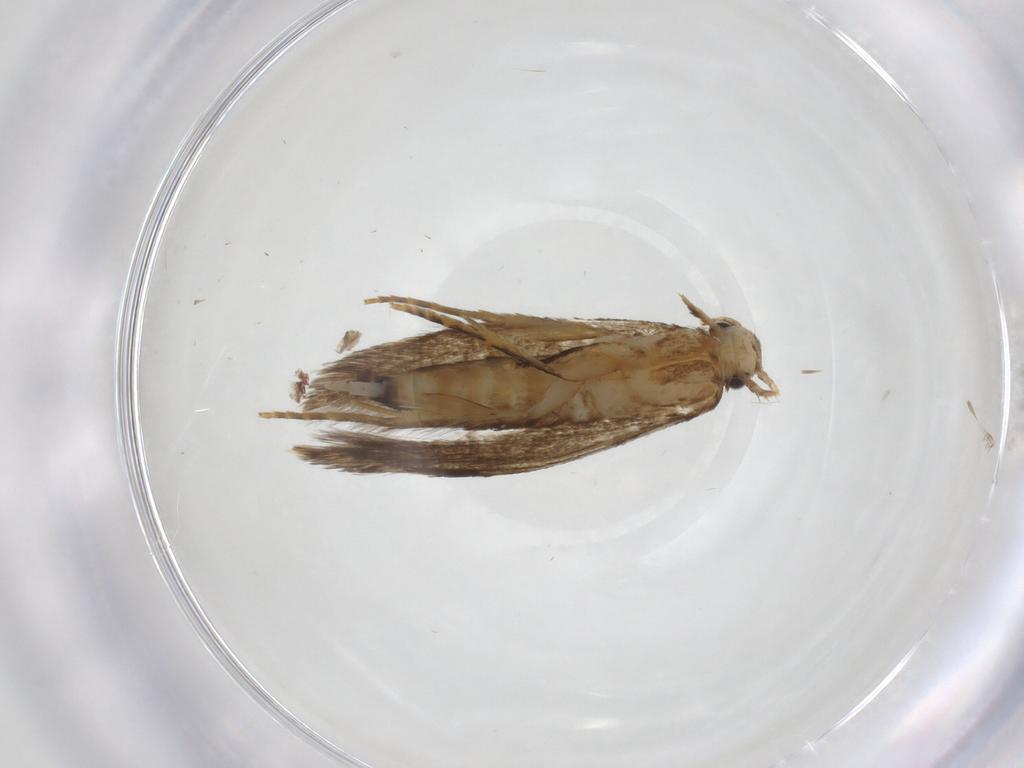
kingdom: Animalia
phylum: Arthropoda
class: Insecta
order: Lepidoptera
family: Tineidae
